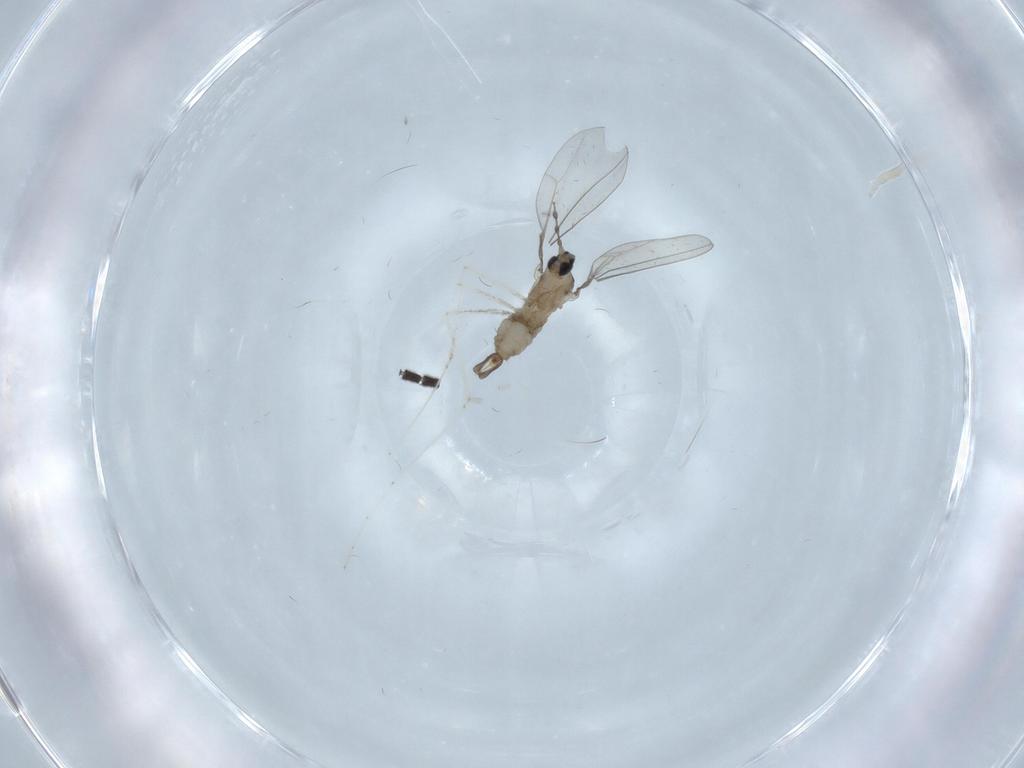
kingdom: Animalia
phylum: Arthropoda
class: Insecta
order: Diptera
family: Cecidomyiidae
